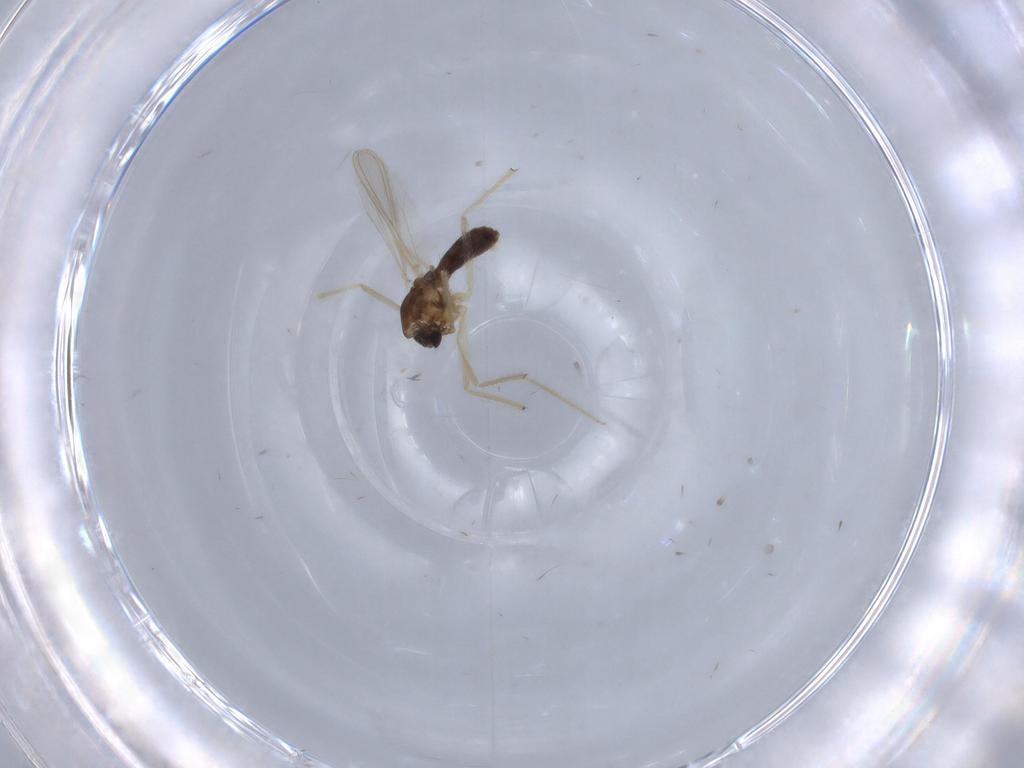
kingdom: Animalia
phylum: Arthropoda
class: Insecta
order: Diptera
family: Chironomidae
